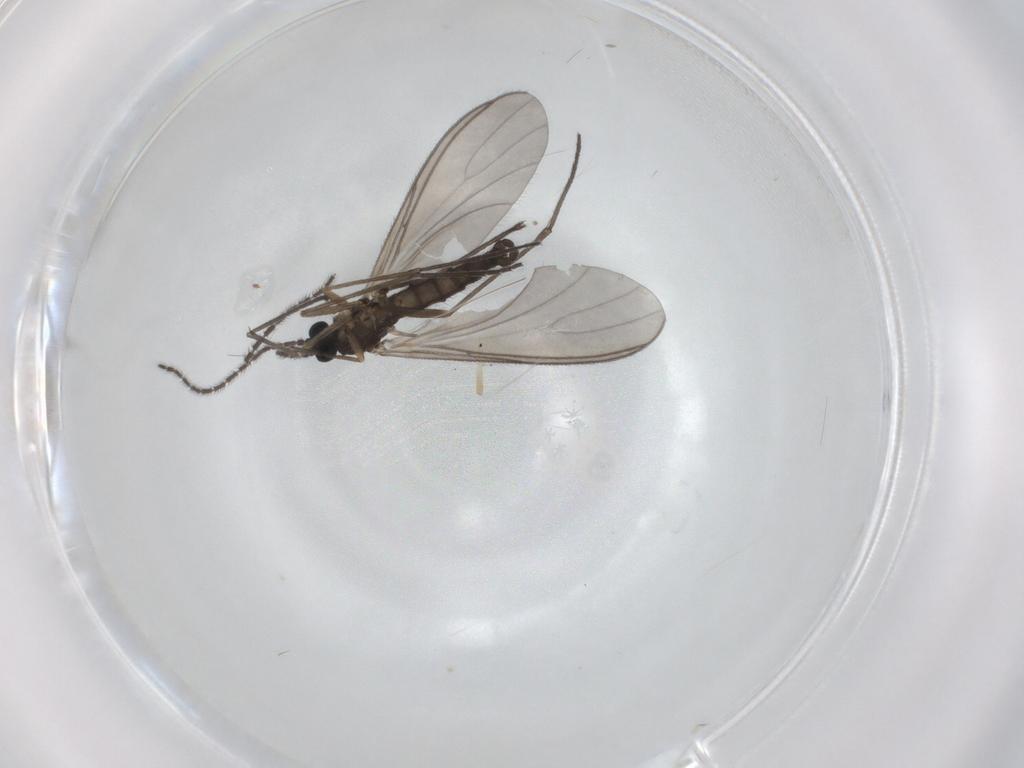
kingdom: Animalia
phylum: Arthropoda
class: Insecta
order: Diptera
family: Sciaridae
